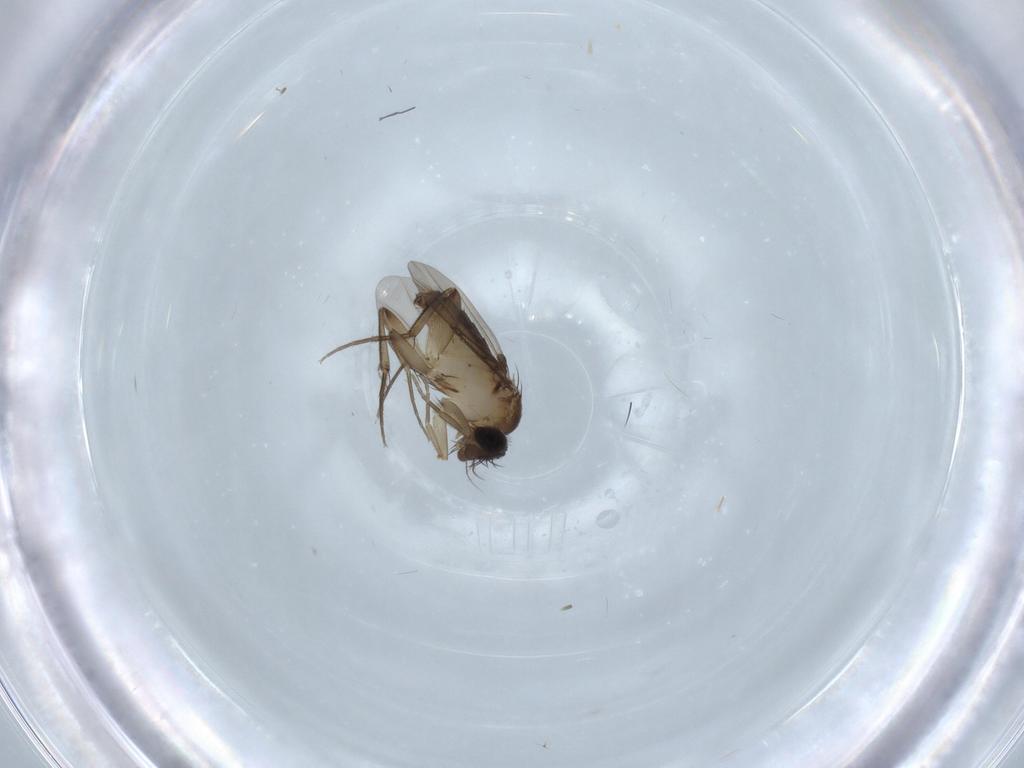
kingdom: Animalia
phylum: Arthropoda
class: Insecta
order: Diptera
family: Phoridae
